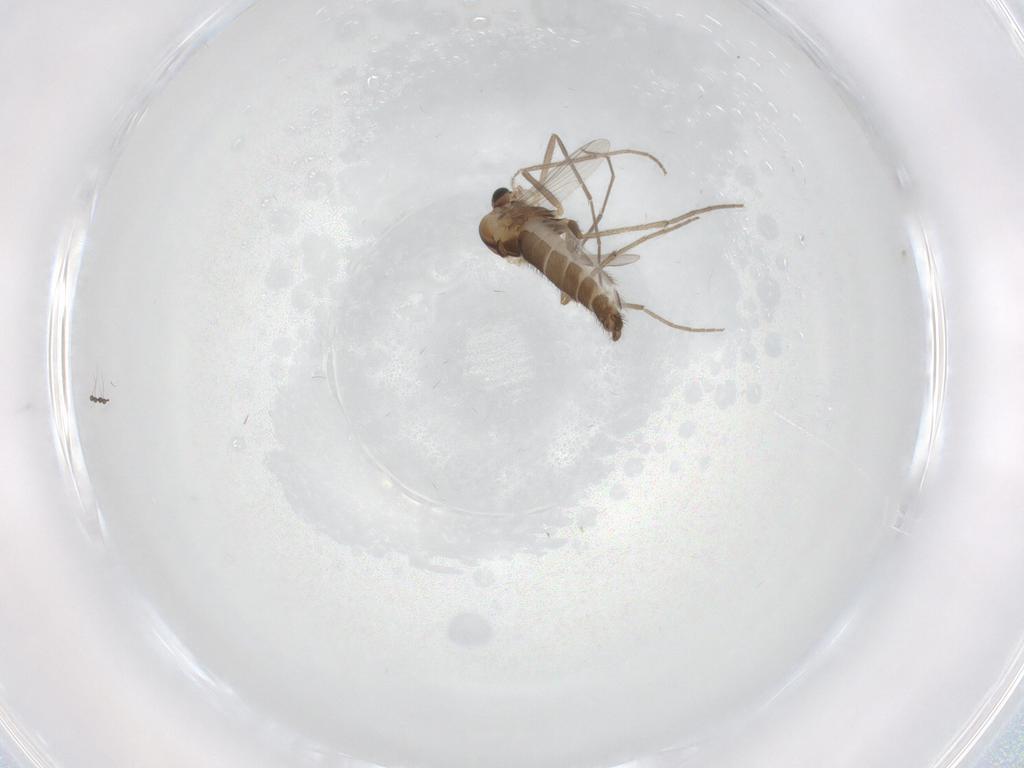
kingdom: Animalia
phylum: Arthropoda
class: Insecta
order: Diptera
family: Chironomidae
